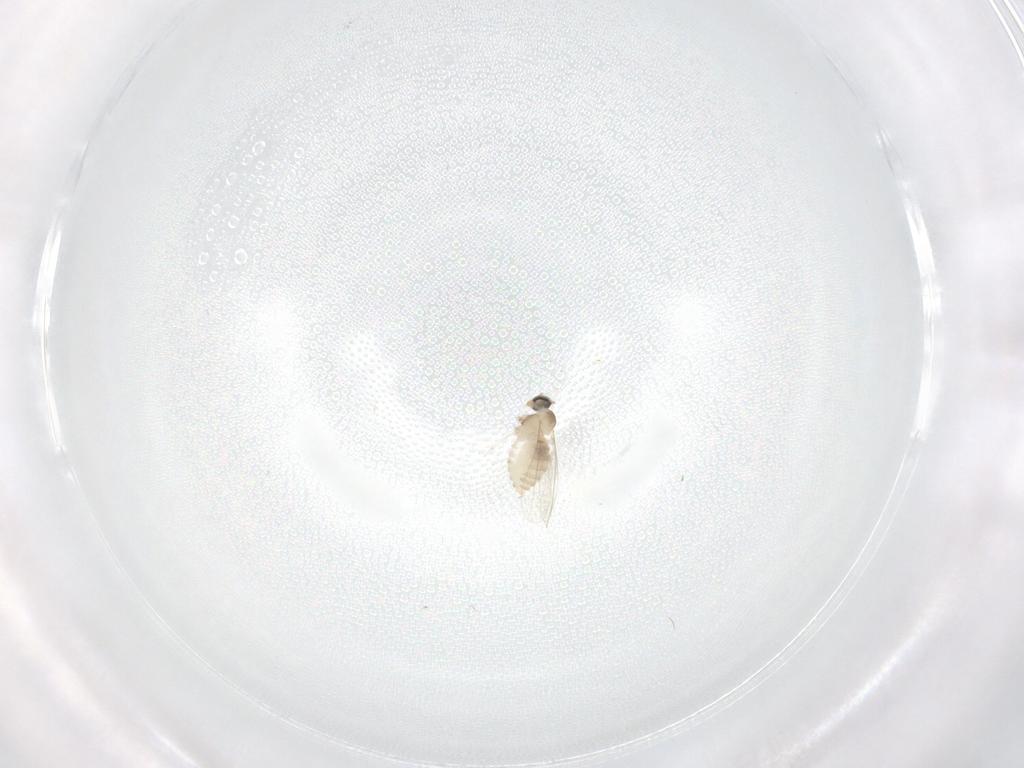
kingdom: Animalia
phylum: Arthropoda
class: Insecta
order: Diptera
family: Cecidomyiidae
